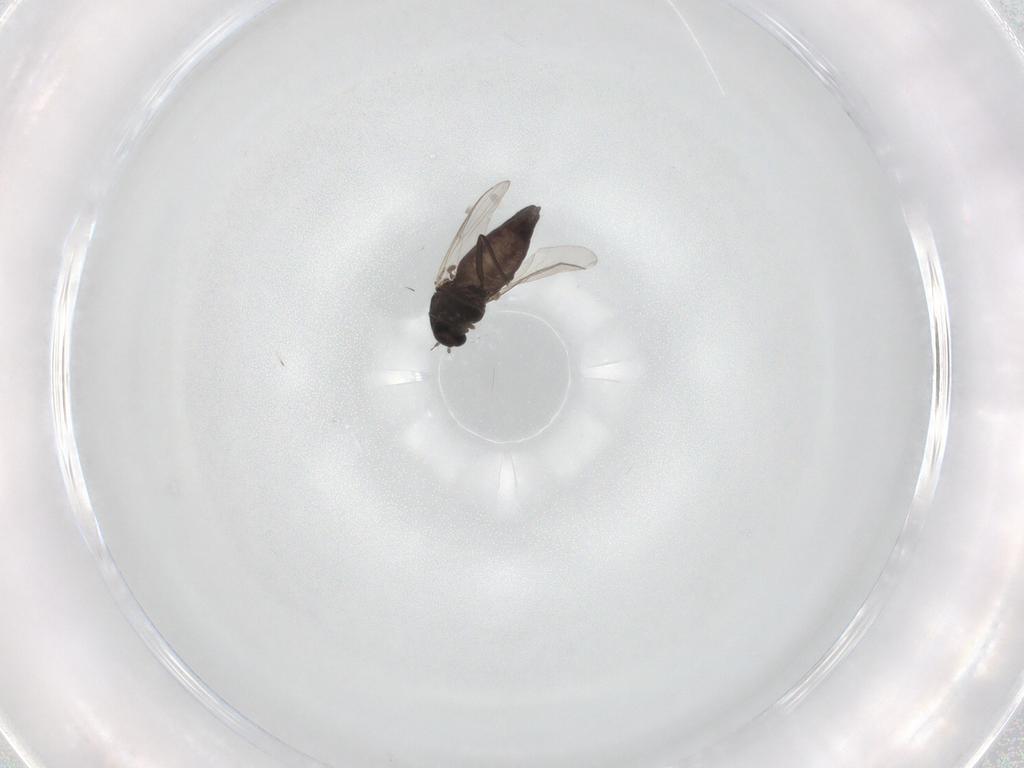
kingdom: Animalia
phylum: Arthropoda
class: Insecta
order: Diptera
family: Chironomidae
